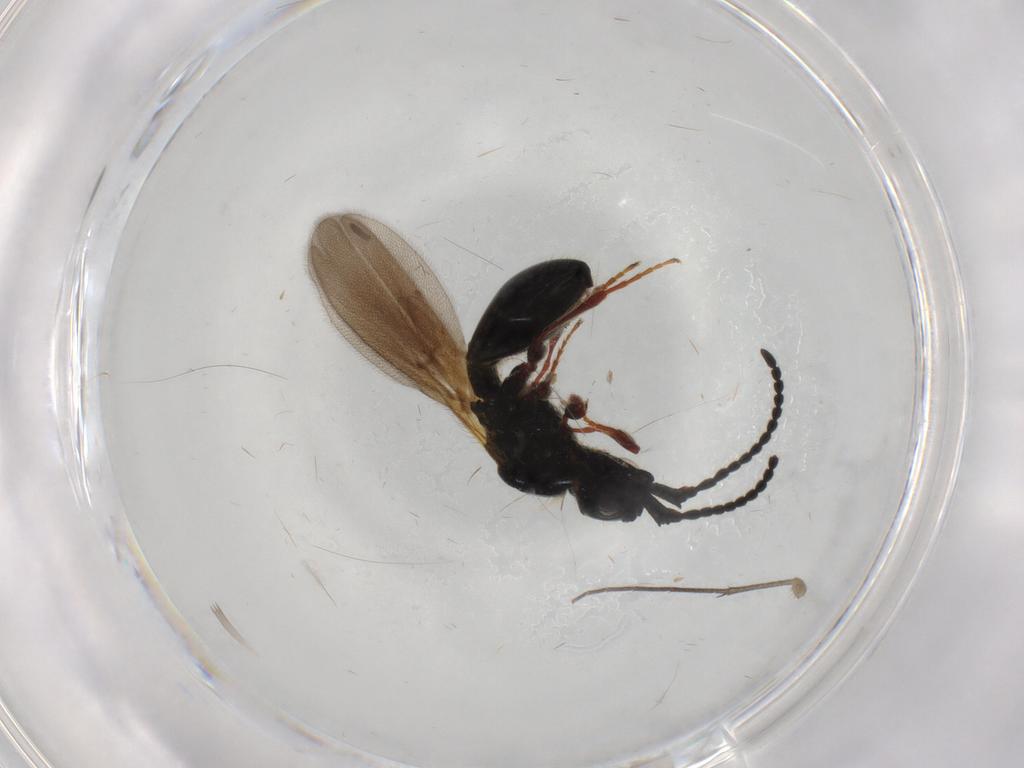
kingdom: Animalia
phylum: Arthropoda
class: Insecta
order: Hymenoptera
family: Diapriidae
